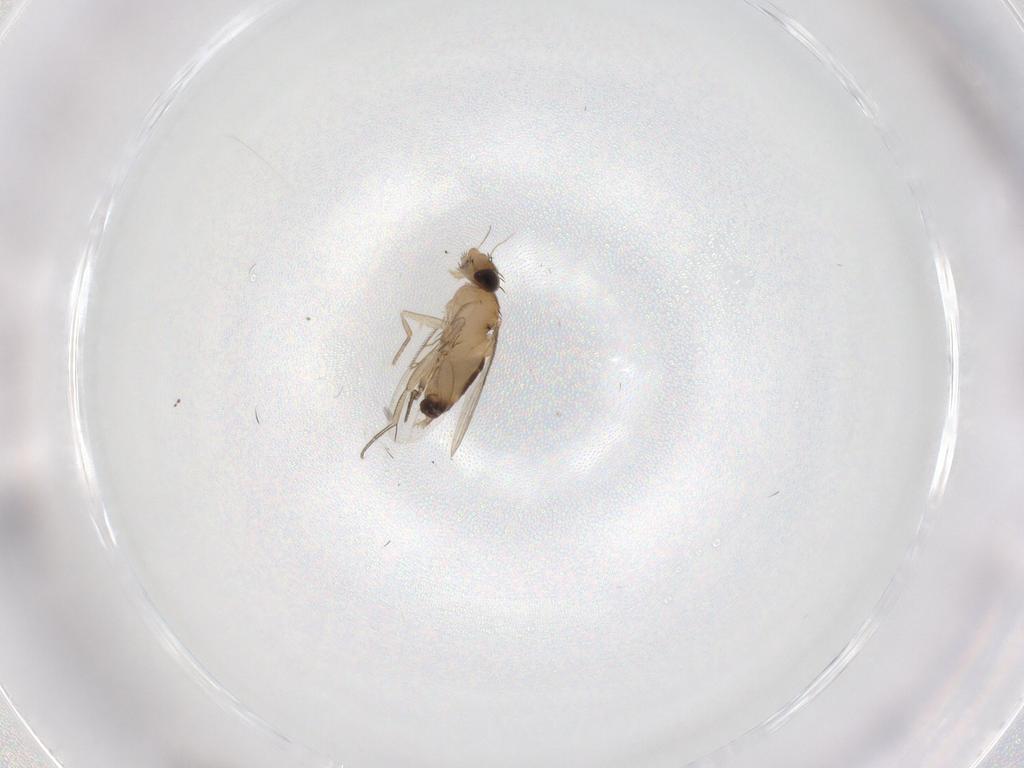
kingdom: Animalia
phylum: Arthropoda
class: Insecta
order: Diptera
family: Phoridae
